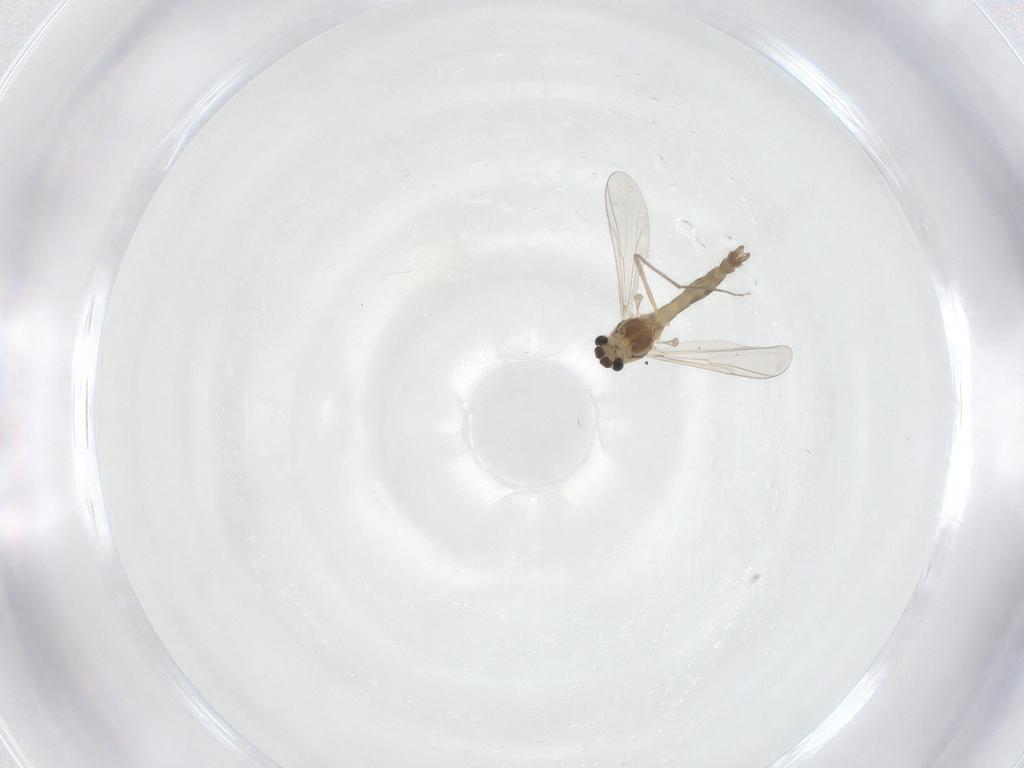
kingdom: Animalia
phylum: Arthropoda
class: Insecta
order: Diptera
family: Chironomidae
